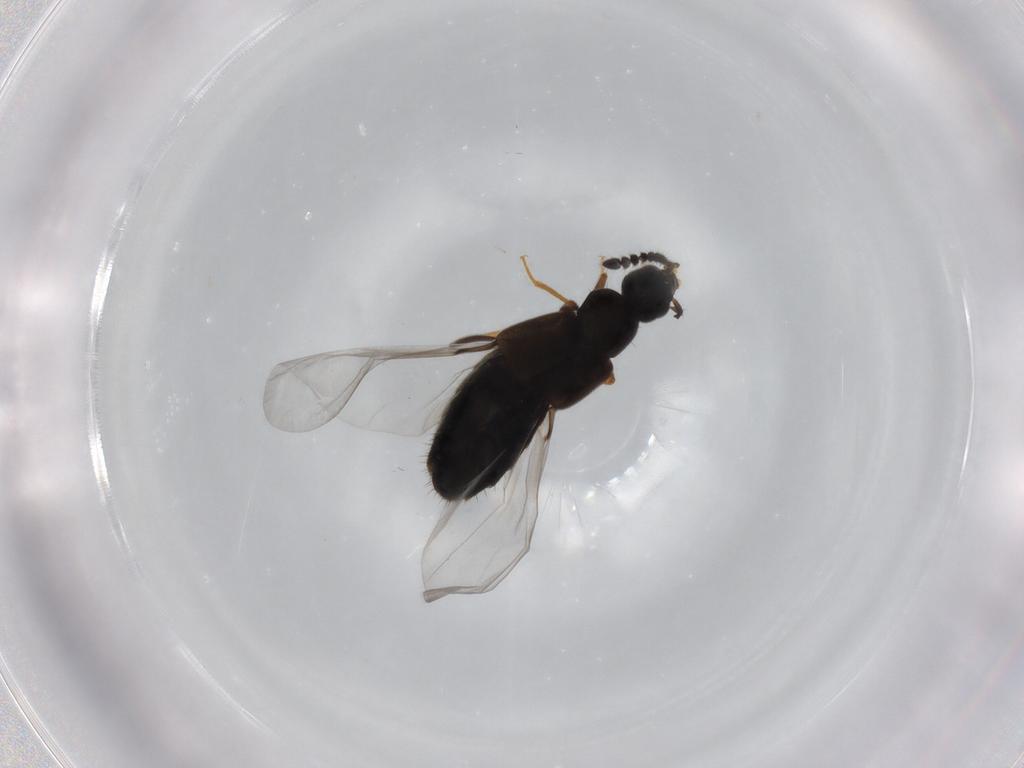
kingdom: Animalia
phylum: Arthropoda
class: Insecta
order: Coleoptera
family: Staphylinidae
